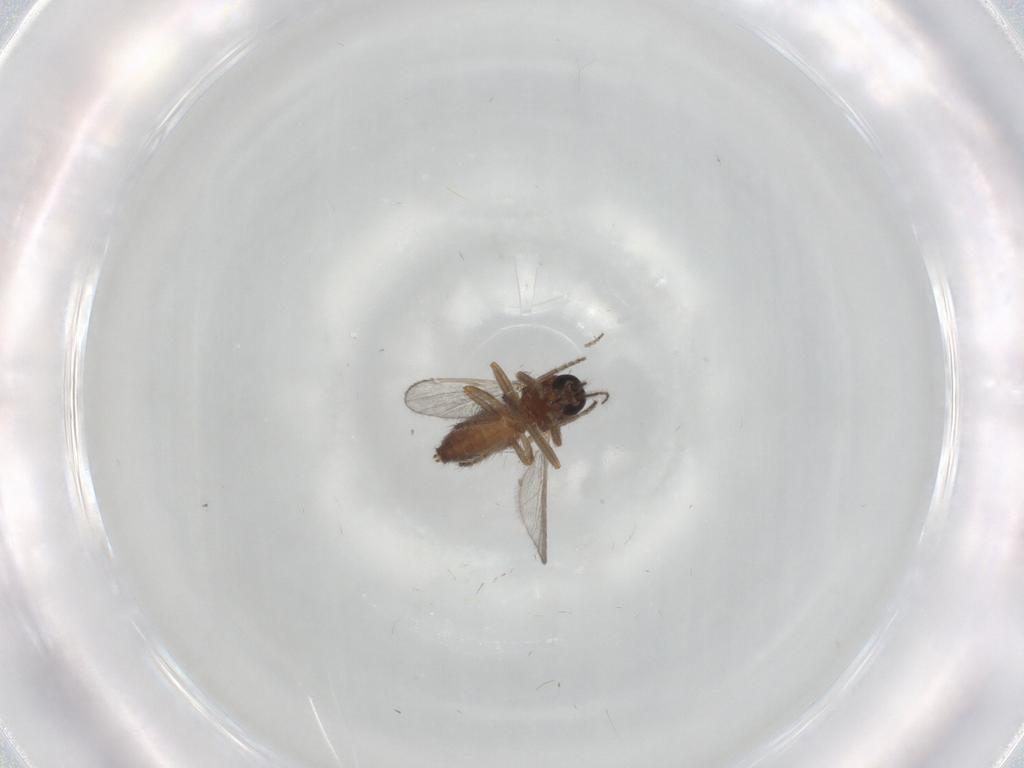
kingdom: Animalia
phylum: Arthropoda
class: Insecta
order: Diptera
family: Ceratopogonidae
